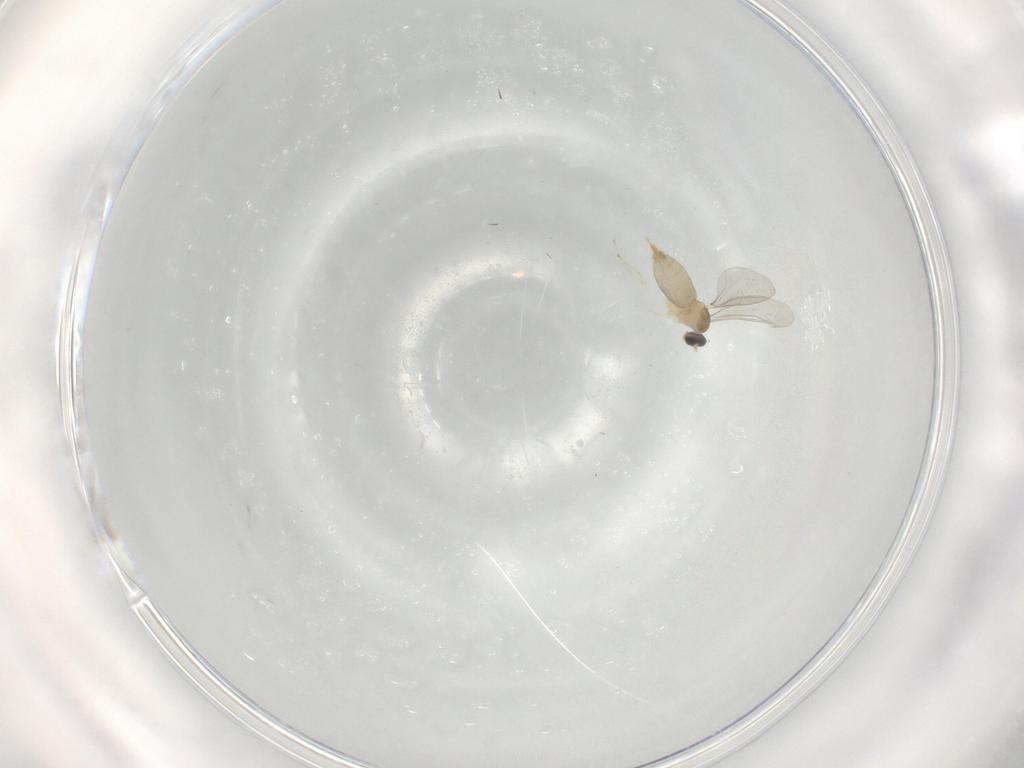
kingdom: Animalia
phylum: Arthropoda
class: Insecta
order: Diptera
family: Cecidomyiidae
